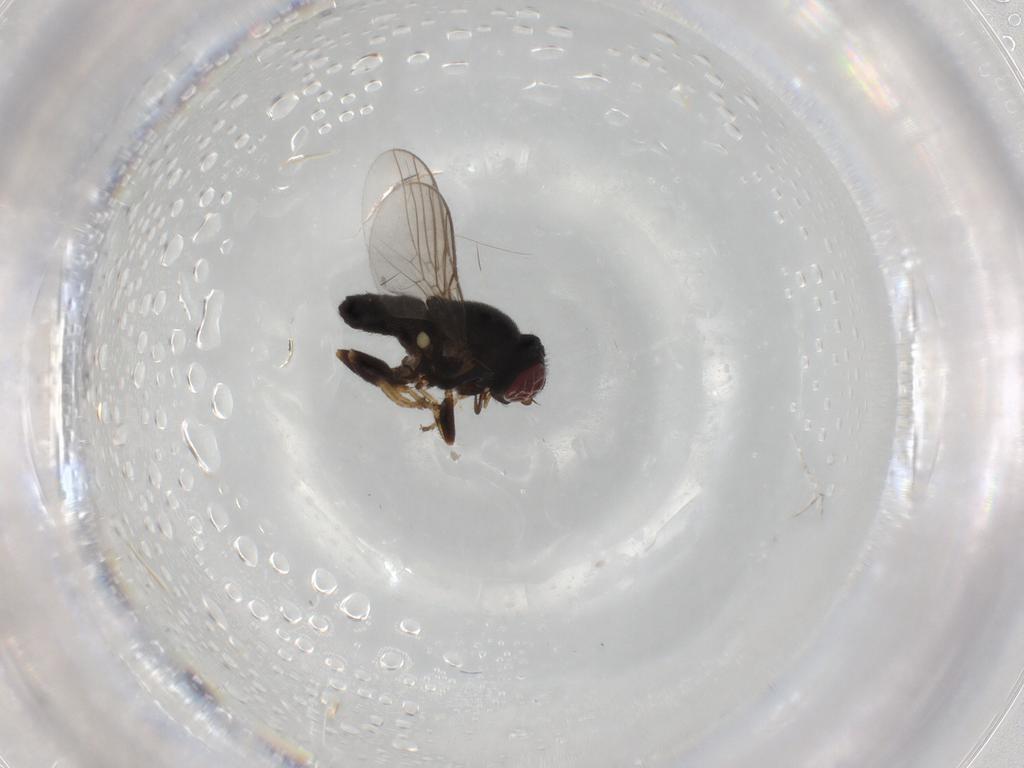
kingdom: Animalia
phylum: Arthropoda
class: Insecta
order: Diptera
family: Chloropidae
